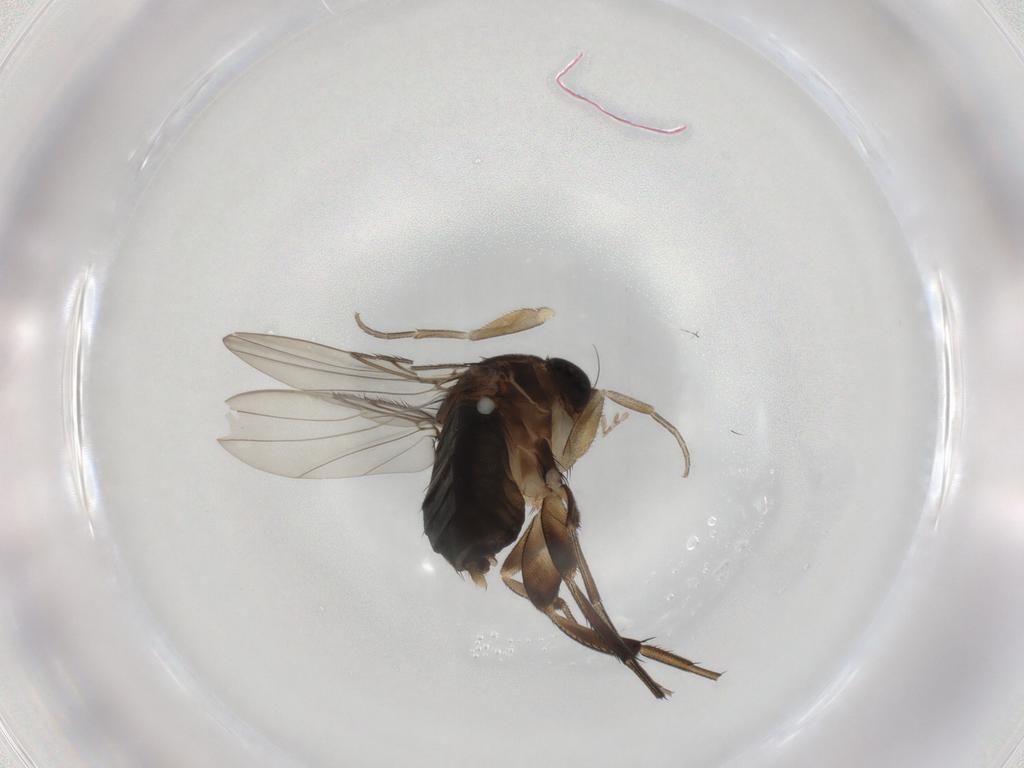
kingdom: Animalia
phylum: Arthropoda
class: Insecta
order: Diptera
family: Phoridae
